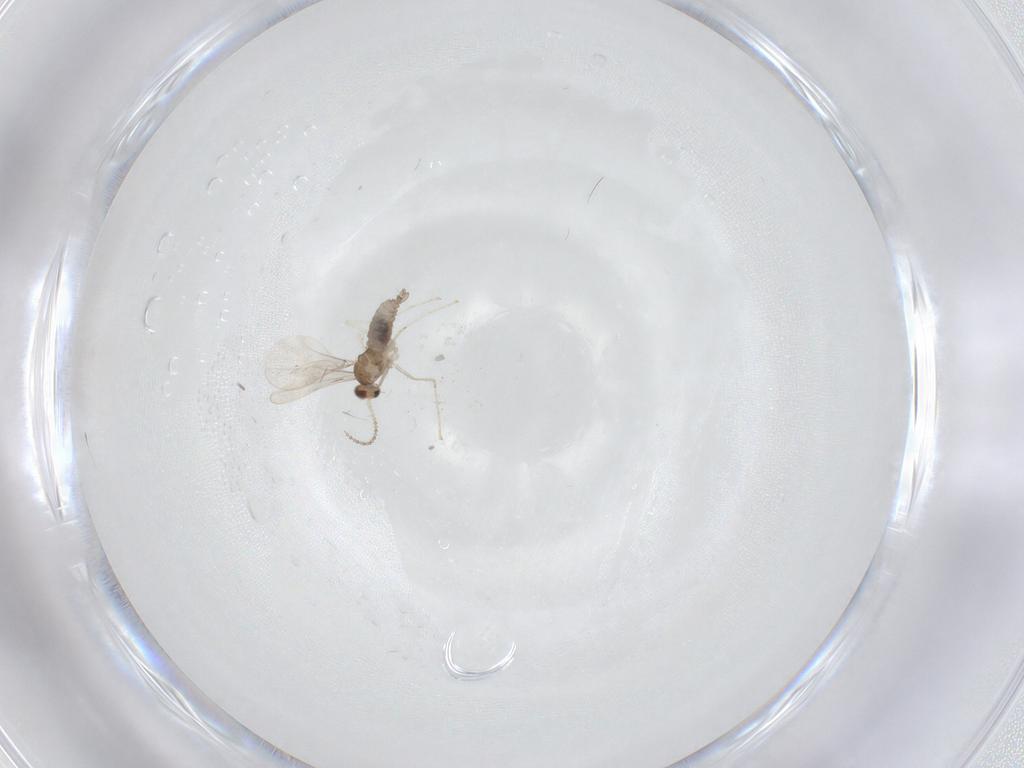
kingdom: Animalia
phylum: Arthropoda
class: Insecta
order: Diptera
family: Cecidomyiidae
